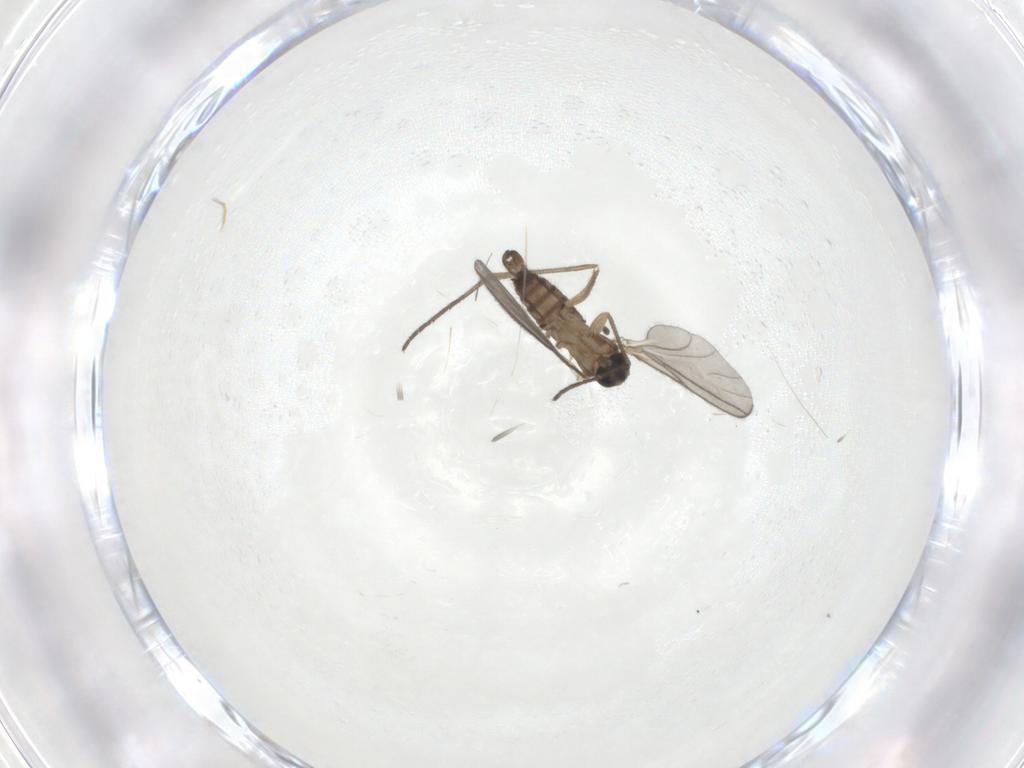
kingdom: Animalia
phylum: Arthropoda
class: Insecta
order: Diptera
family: Sciaridae
